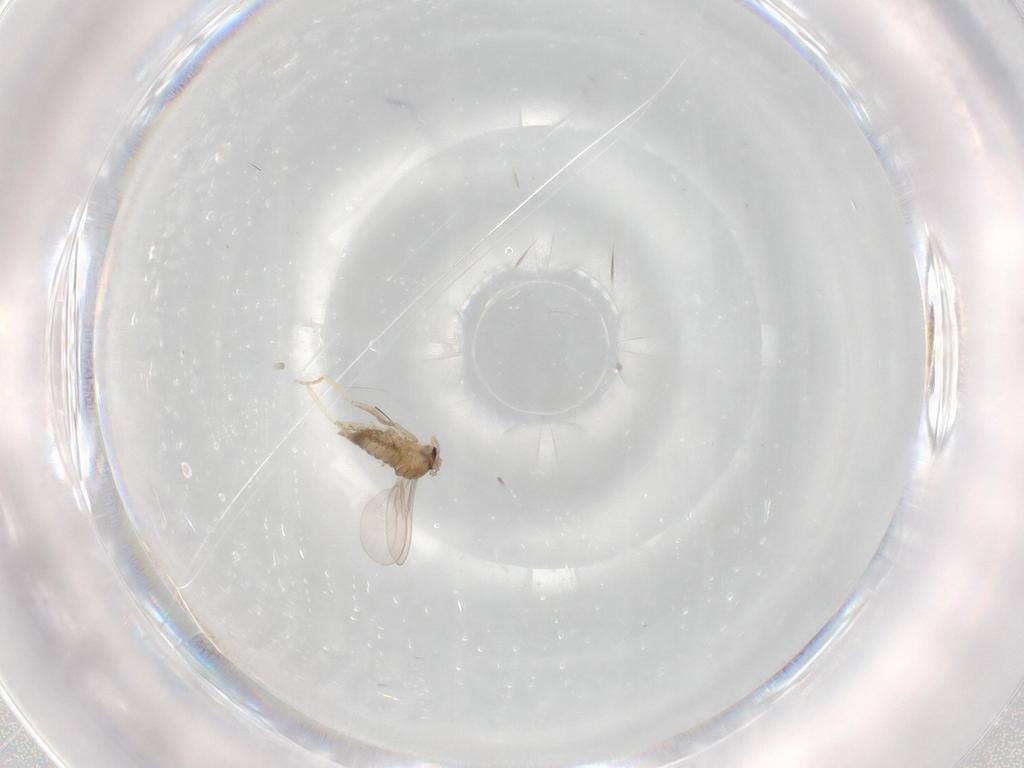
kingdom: Animalia
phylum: Arthropoda
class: Insecta
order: Diptera
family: Cecidomyiidae
